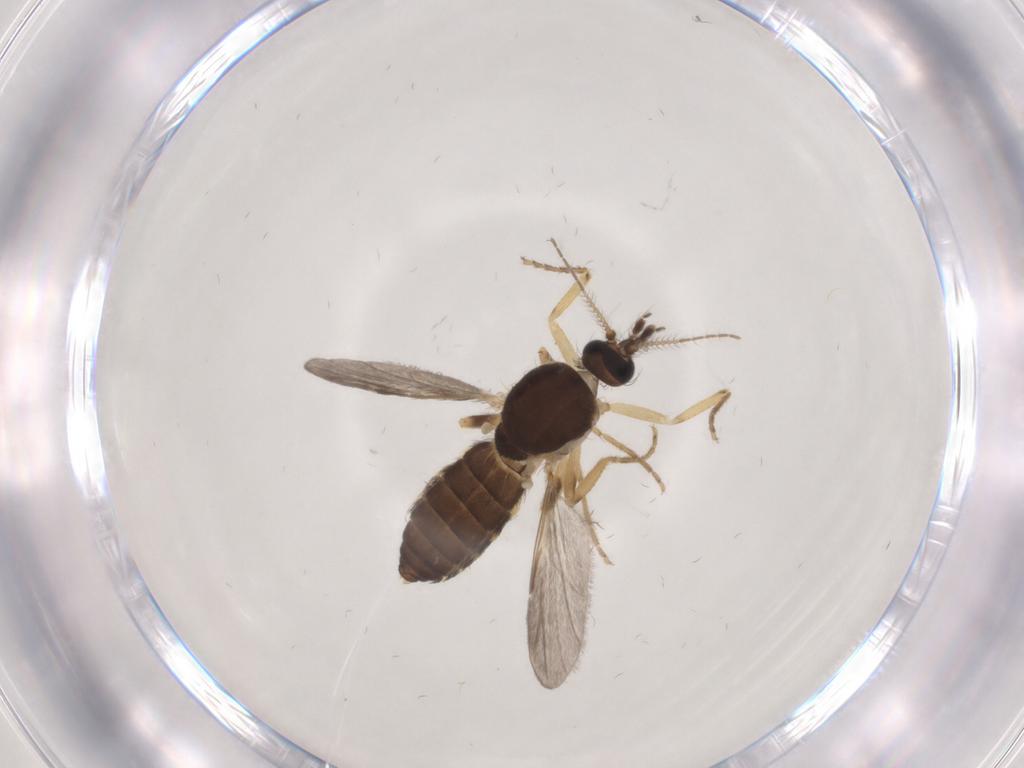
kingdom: Animalia
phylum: Arthropoda
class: Insecta
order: Diptera
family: Ceratopogonidae
